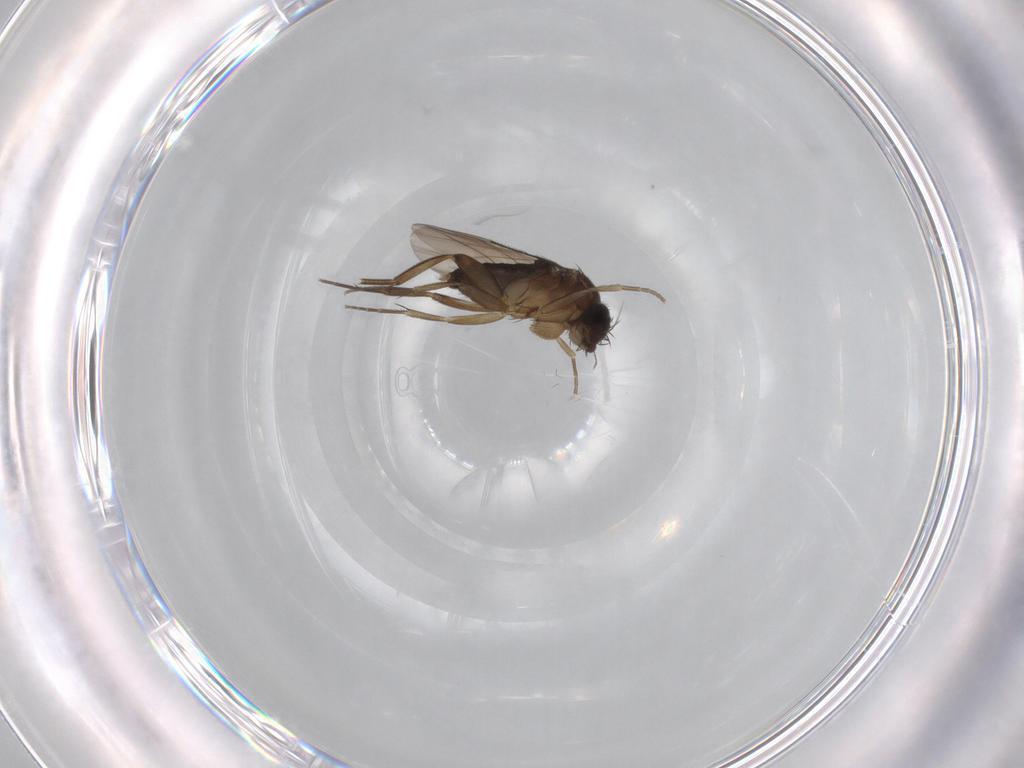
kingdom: Animalia
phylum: Arthropoda
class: Insecta
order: Diptera
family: Phoridae
